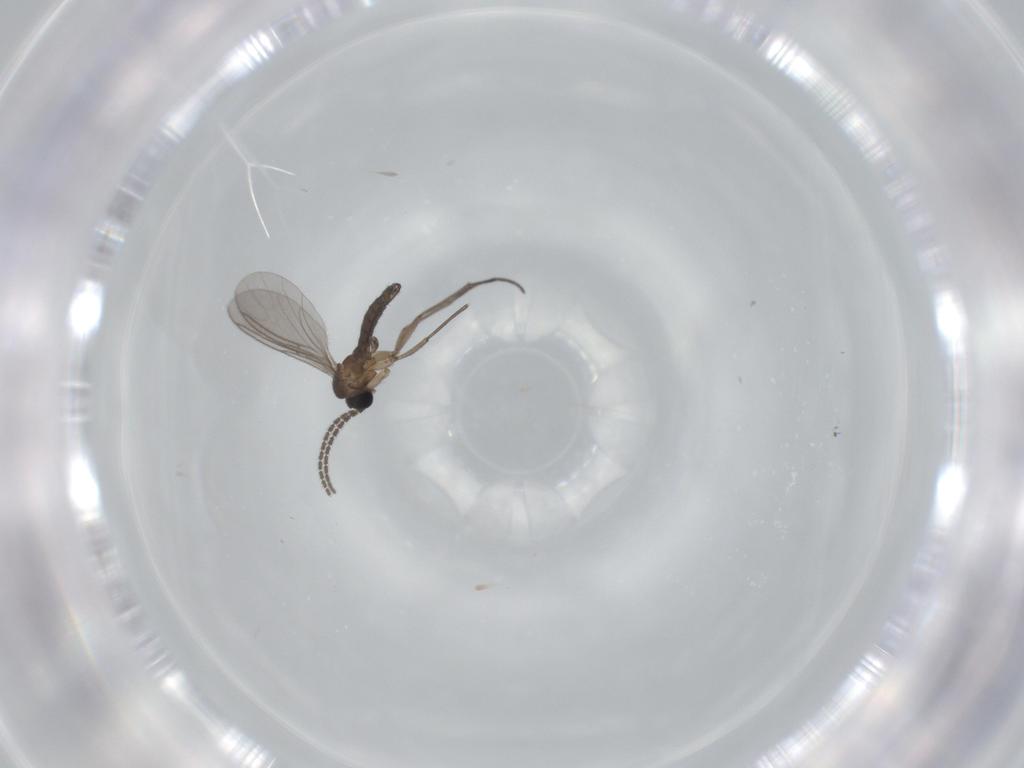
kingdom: Animalia
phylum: Arthropoda
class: Insecta
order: Diptera
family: Sciaridae
